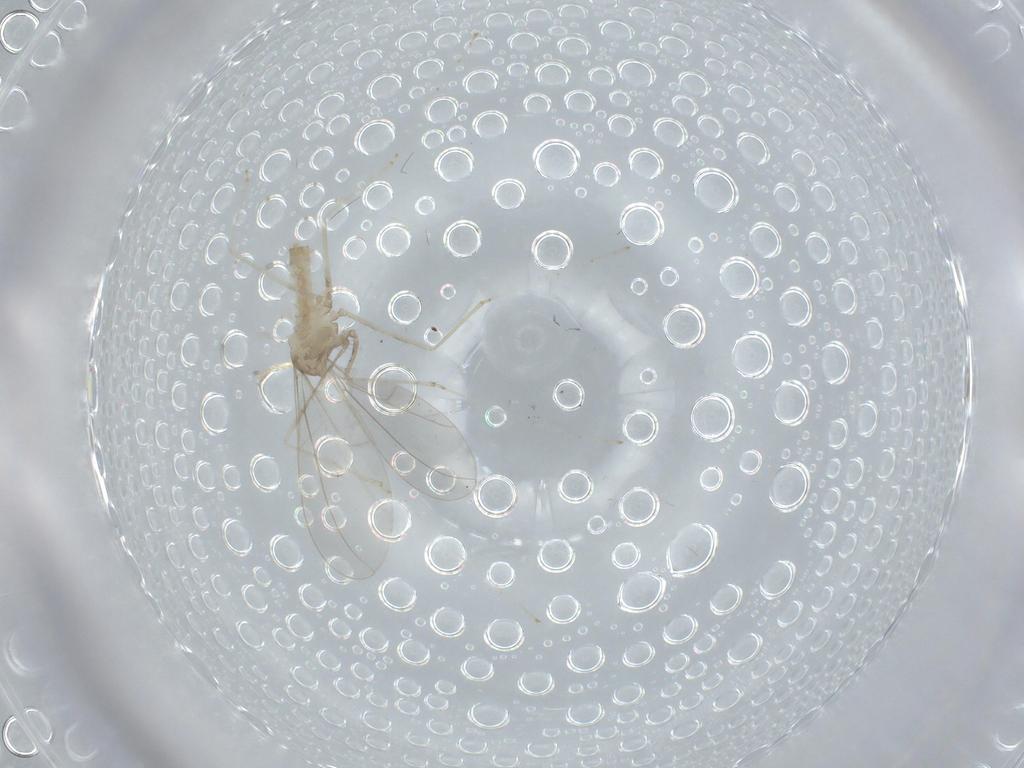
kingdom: Animalia
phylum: Arthropoda
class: Insecta
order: Diptera
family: Cecidomyiidae
